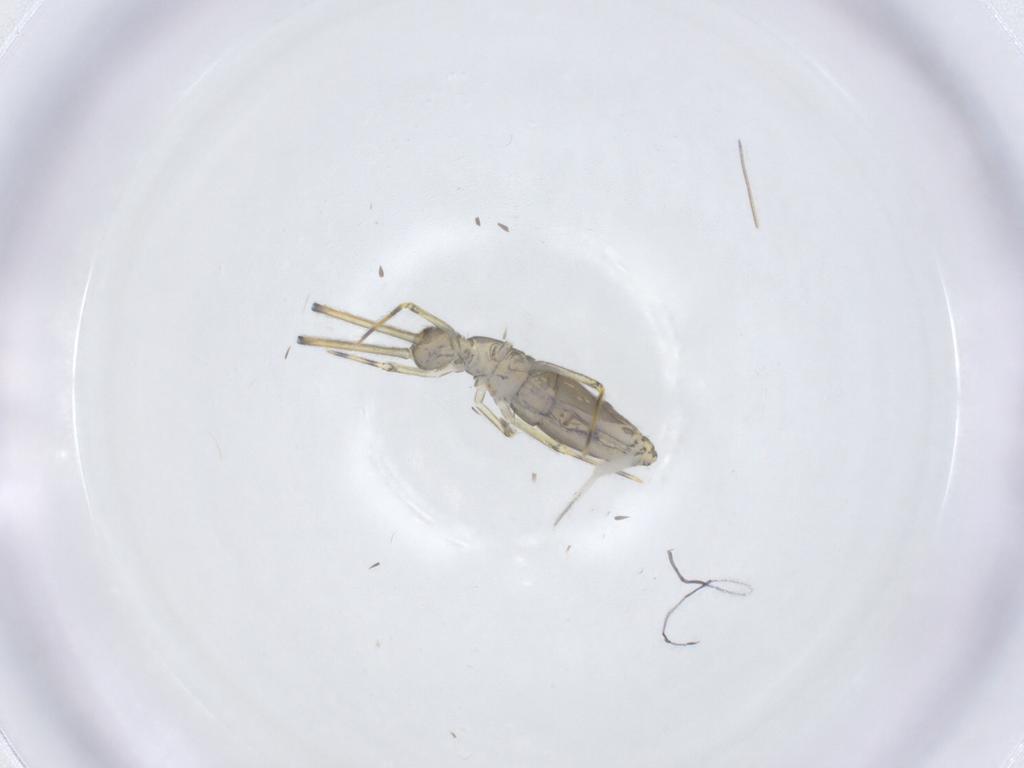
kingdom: Animalia
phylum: Arthropoda
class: Collembola
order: Entomobryomorpha
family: Entomobryidae
